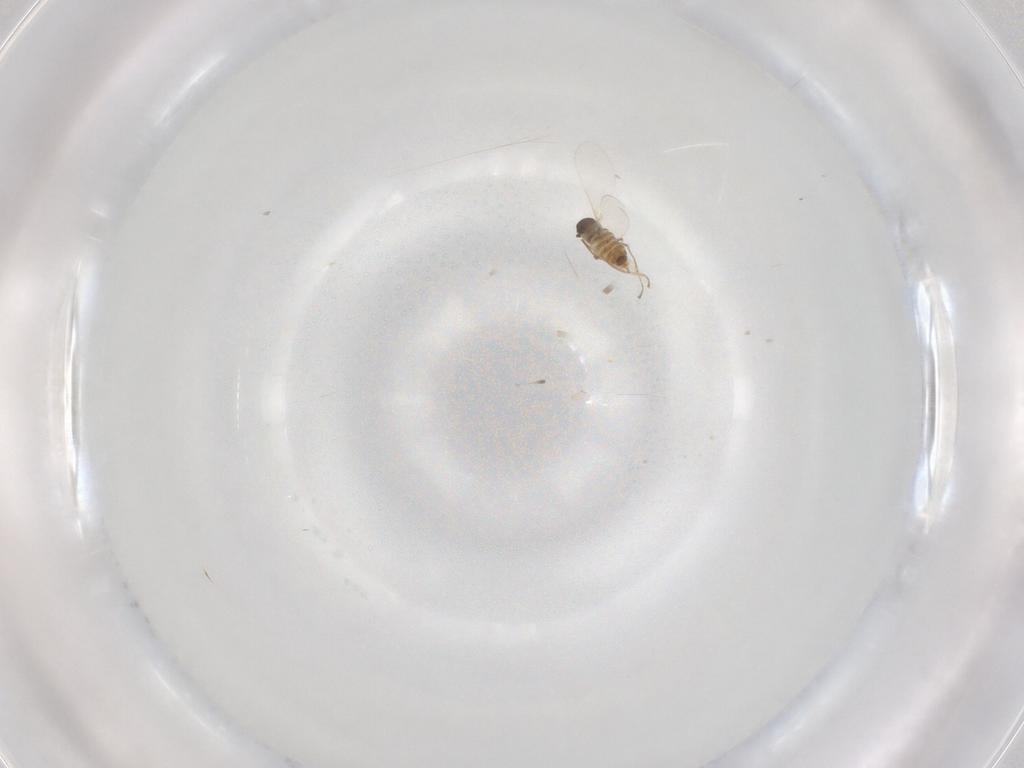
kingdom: Animalia
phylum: Arthropoda
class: Insecta
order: Diptera
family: Cecidomyiidae
